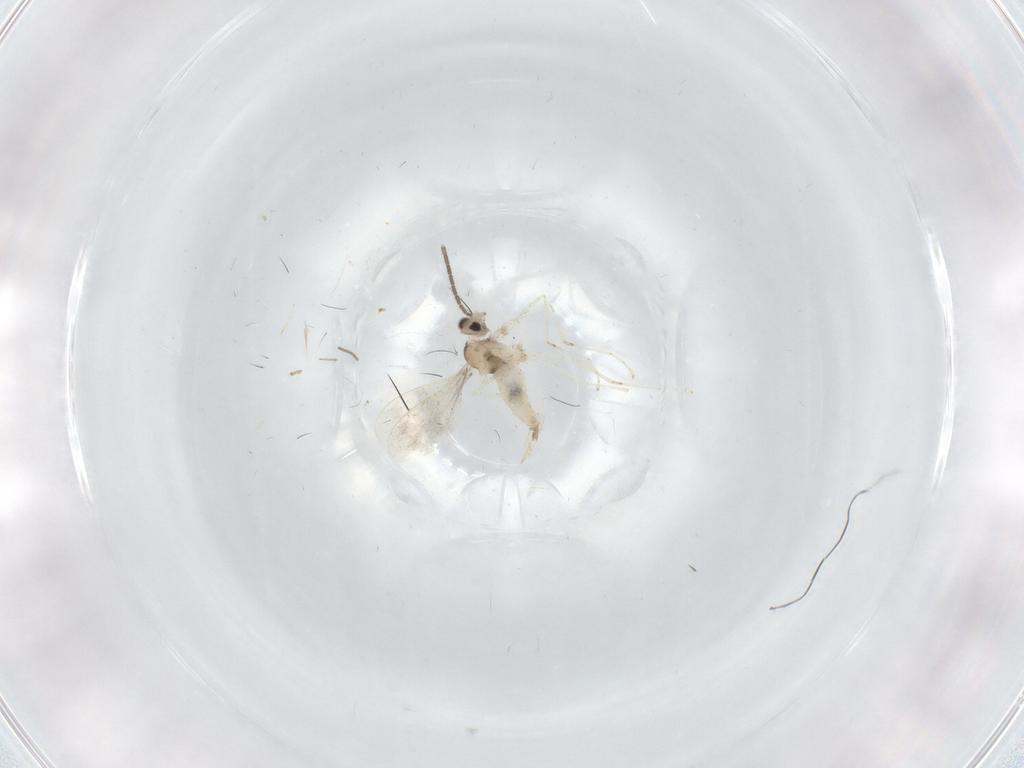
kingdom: Animalia
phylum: Arthropoda
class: Insecta
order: Diptera
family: Sciaridae
